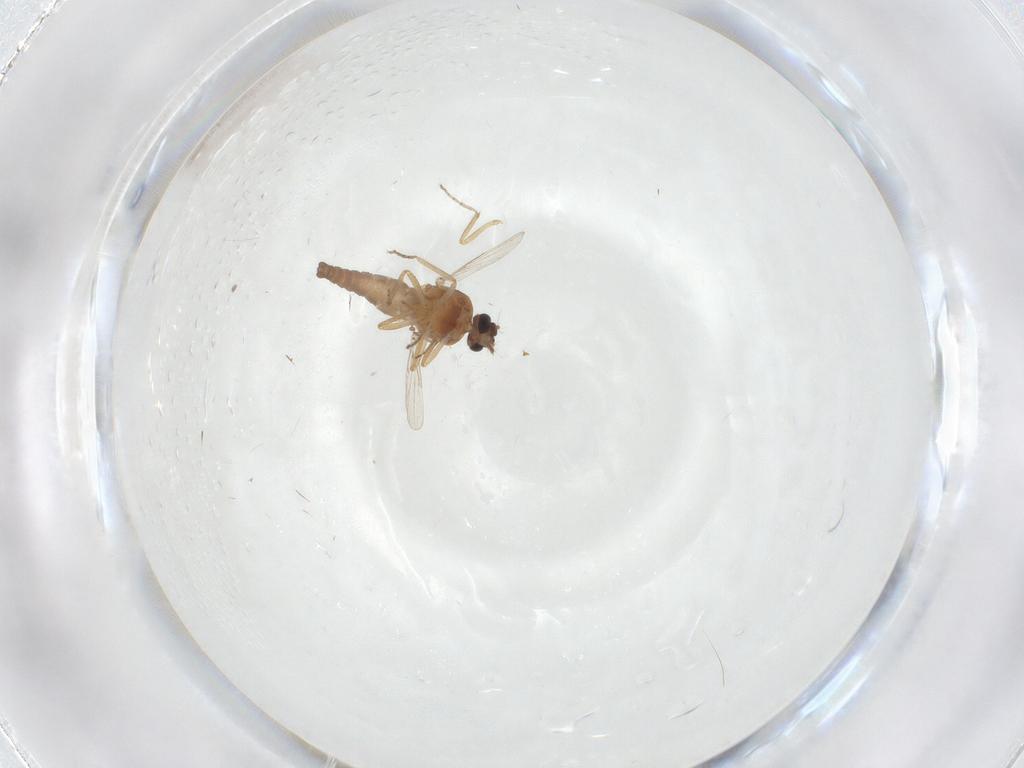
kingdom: Animalia
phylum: Arthropoda
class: Insecta
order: Diptera
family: Ceratopogonidae
